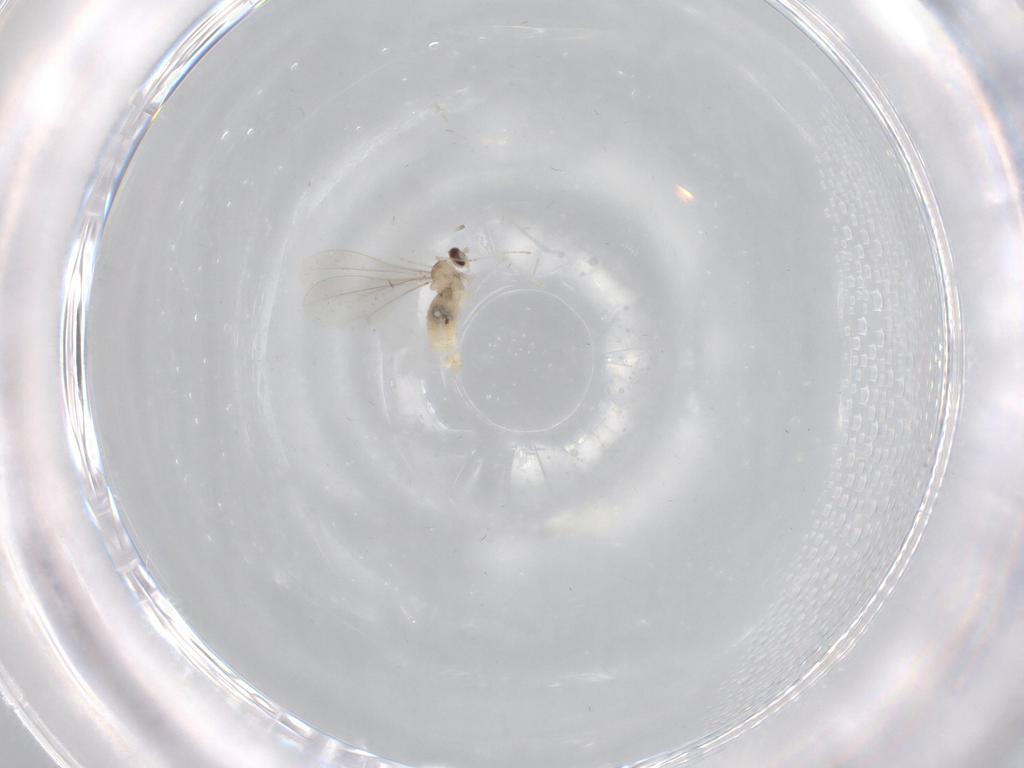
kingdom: Animalia
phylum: Arthropoda
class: Insecta
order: Diptera
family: Cecidomyiidae
